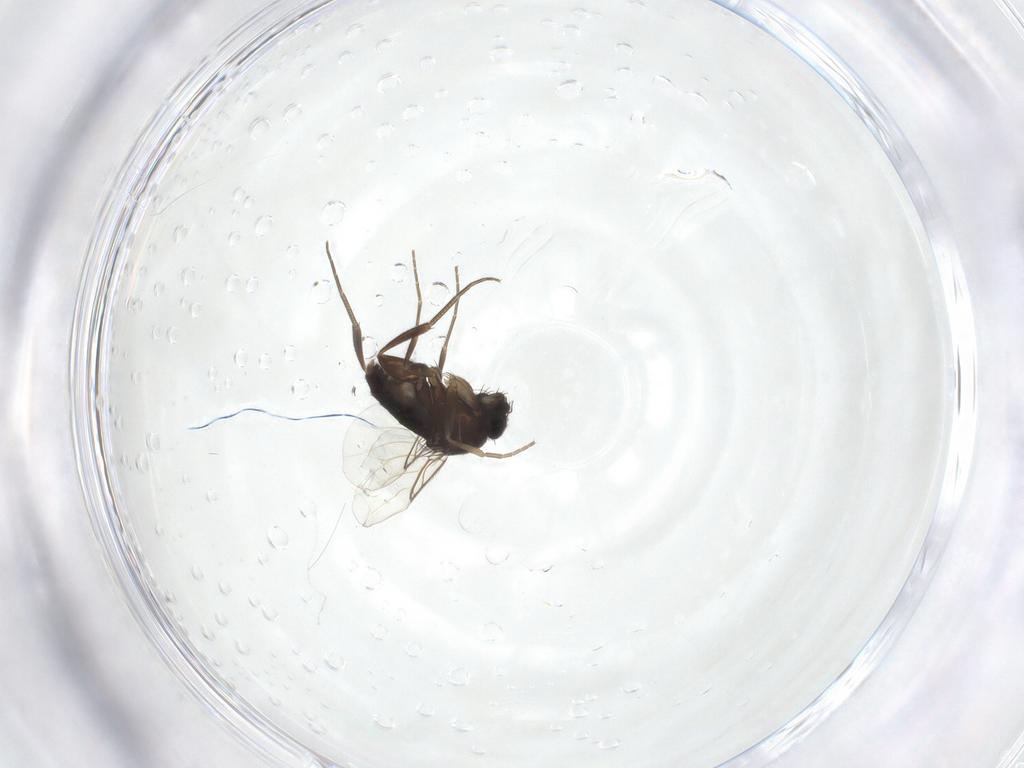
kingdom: Animalia
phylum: Arthropoda
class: Insecta
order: Diptera
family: Phoridae
